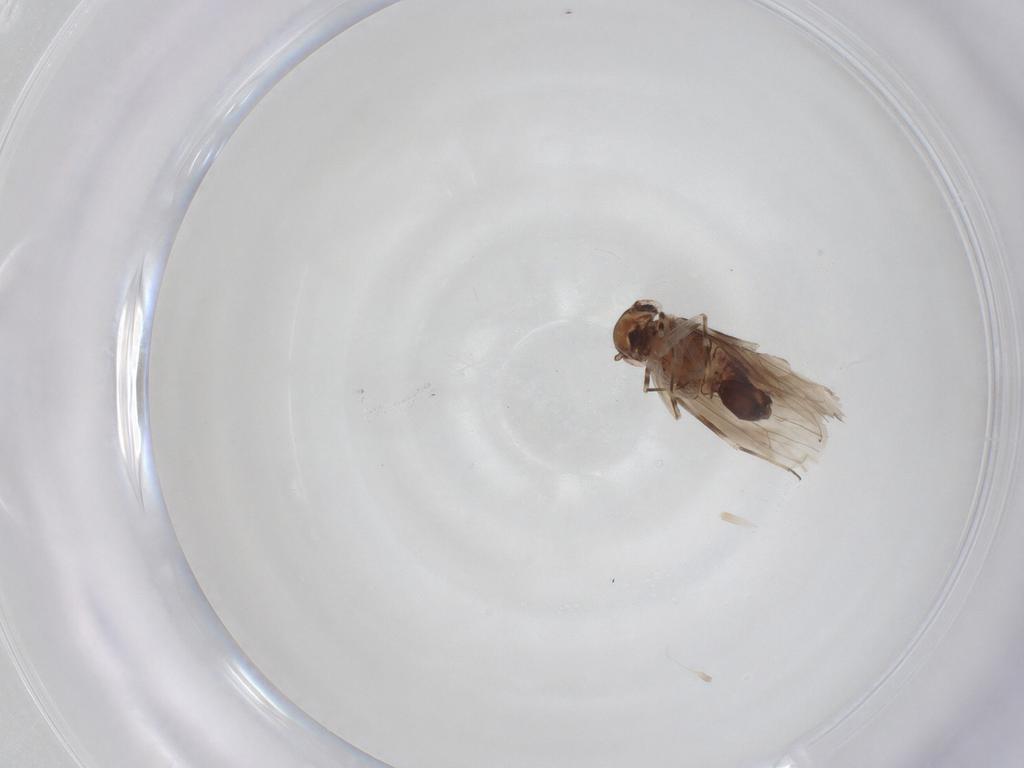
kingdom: Animalia
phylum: Arthropoda
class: Insecta
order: Psocodea
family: Amphientomidae
